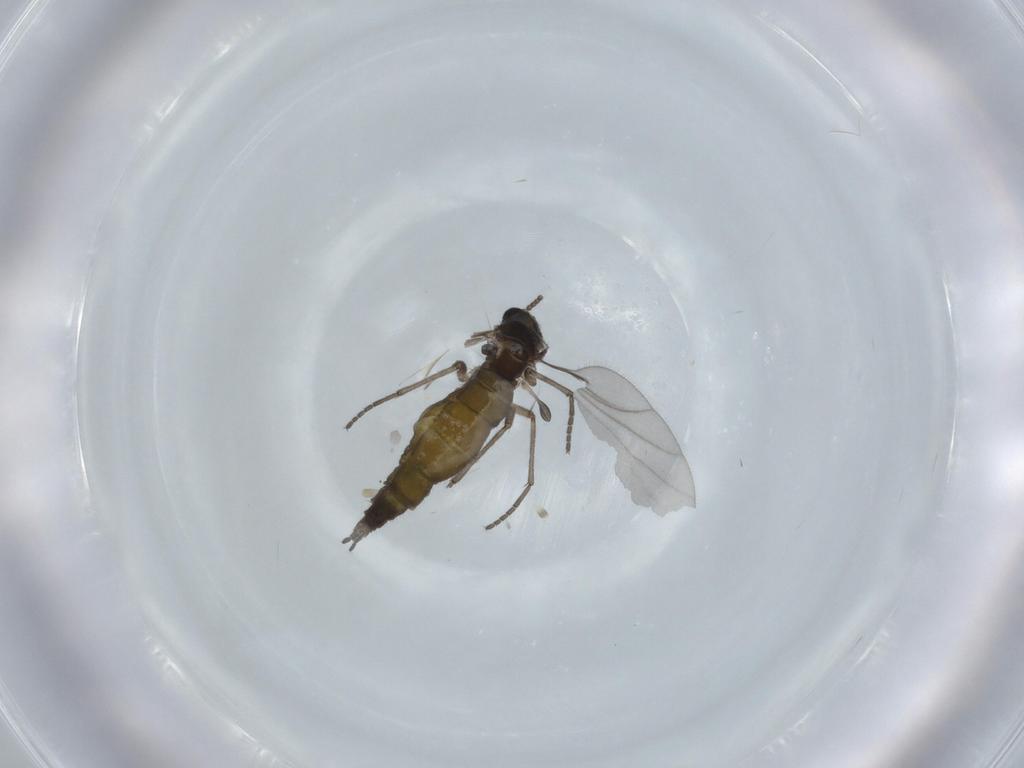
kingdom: Animalia
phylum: Arthropoda
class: Insecta
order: Diptera
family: Sciaridae
